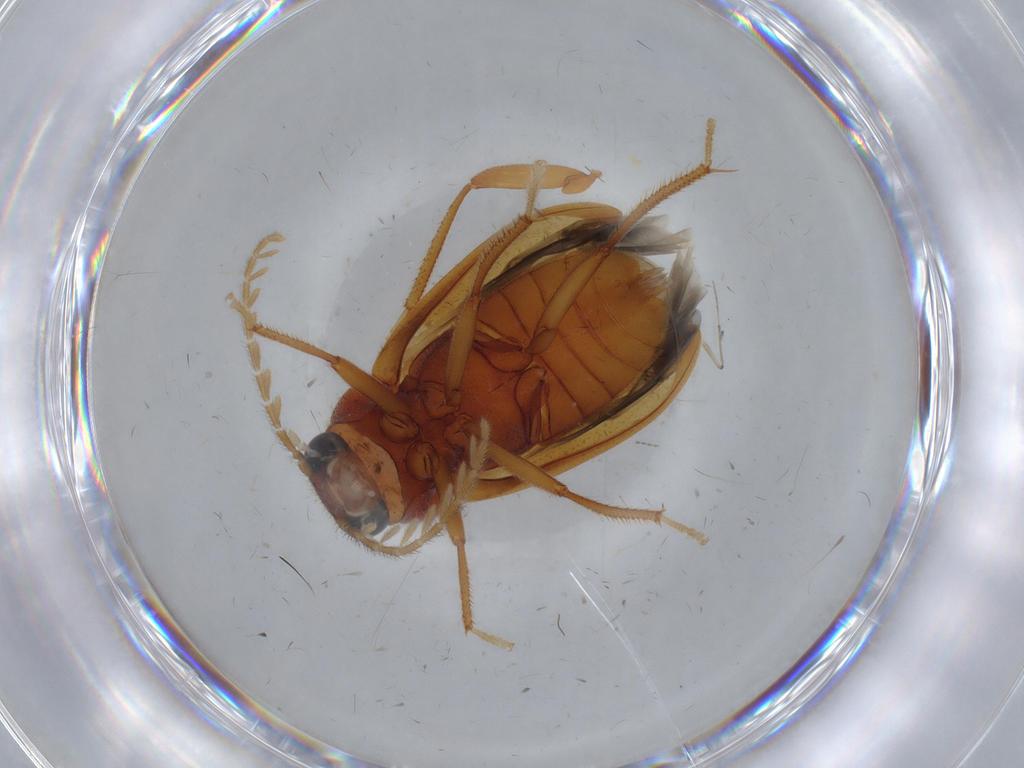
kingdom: Animalia
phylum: Arthropoda
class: Insecta
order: Coleoptera
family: Ptilodactylidae
